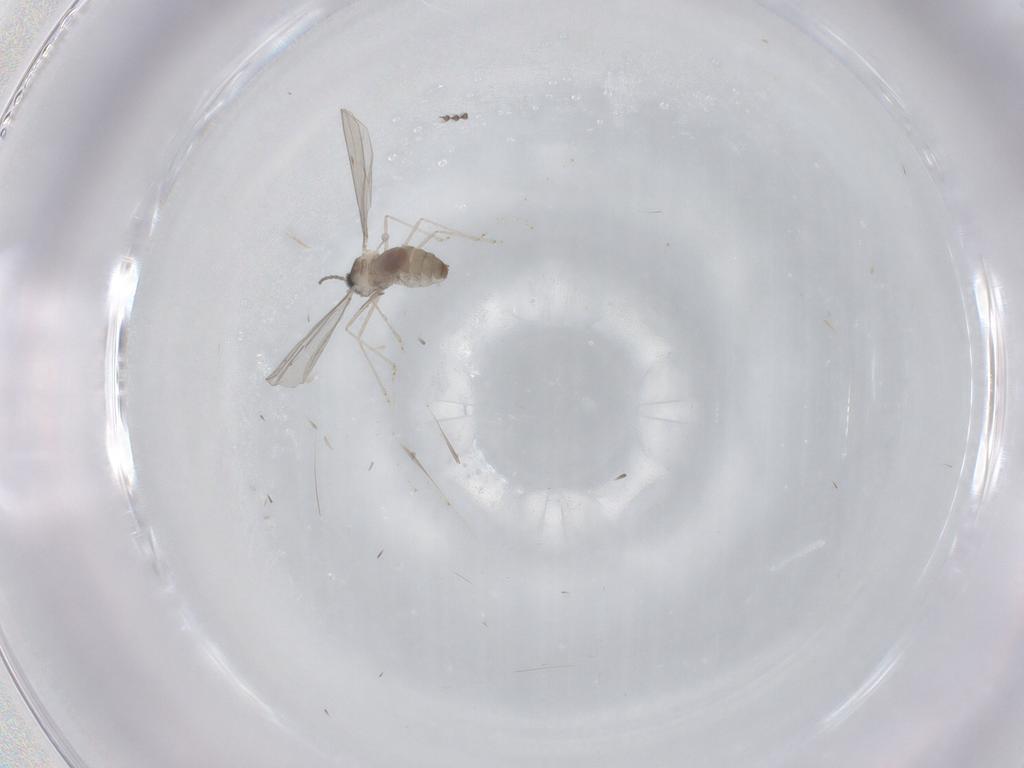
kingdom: Animalia
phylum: Arthropoda
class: Insecta
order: Diptera
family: Cecidomyiidae
